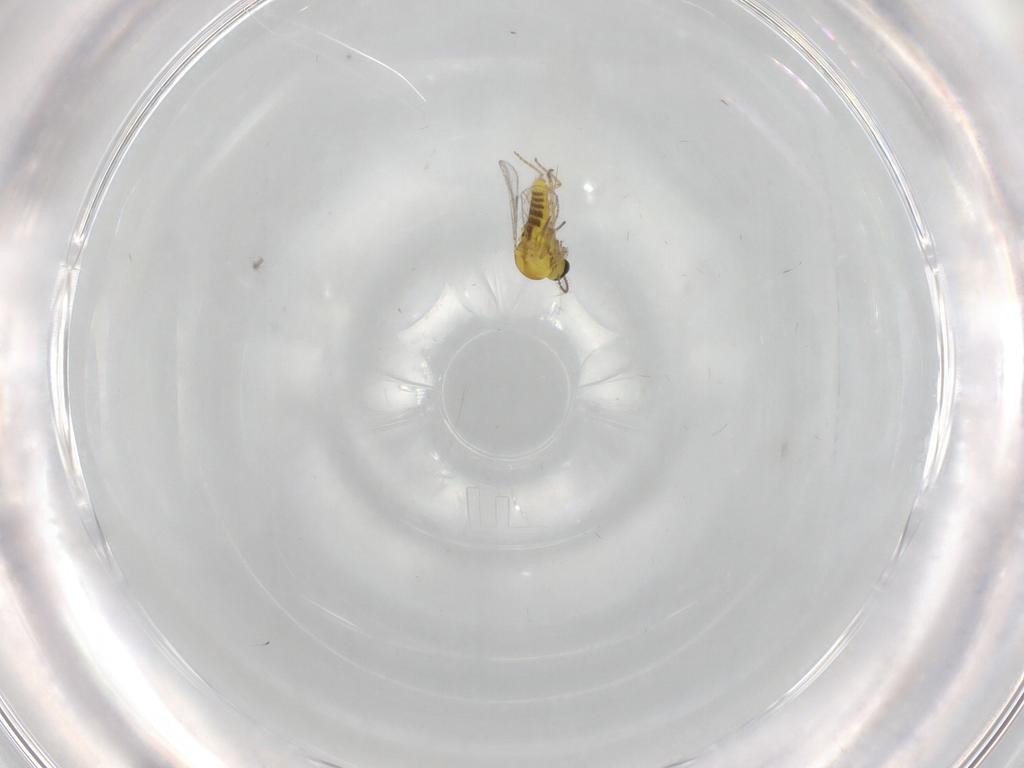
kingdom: Animalia
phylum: Arthropoda
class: Insecta
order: Diptera
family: Ceratopogonidae
